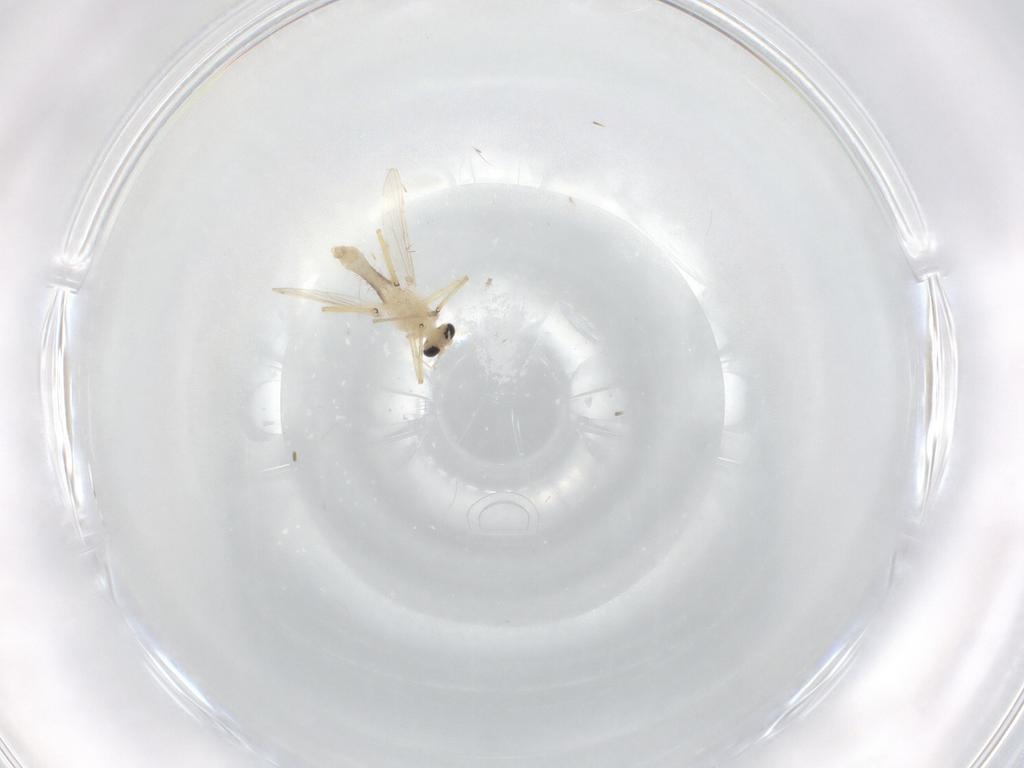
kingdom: Animalia
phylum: Arthropoda
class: Insecta
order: Diptera
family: Chironomidae
